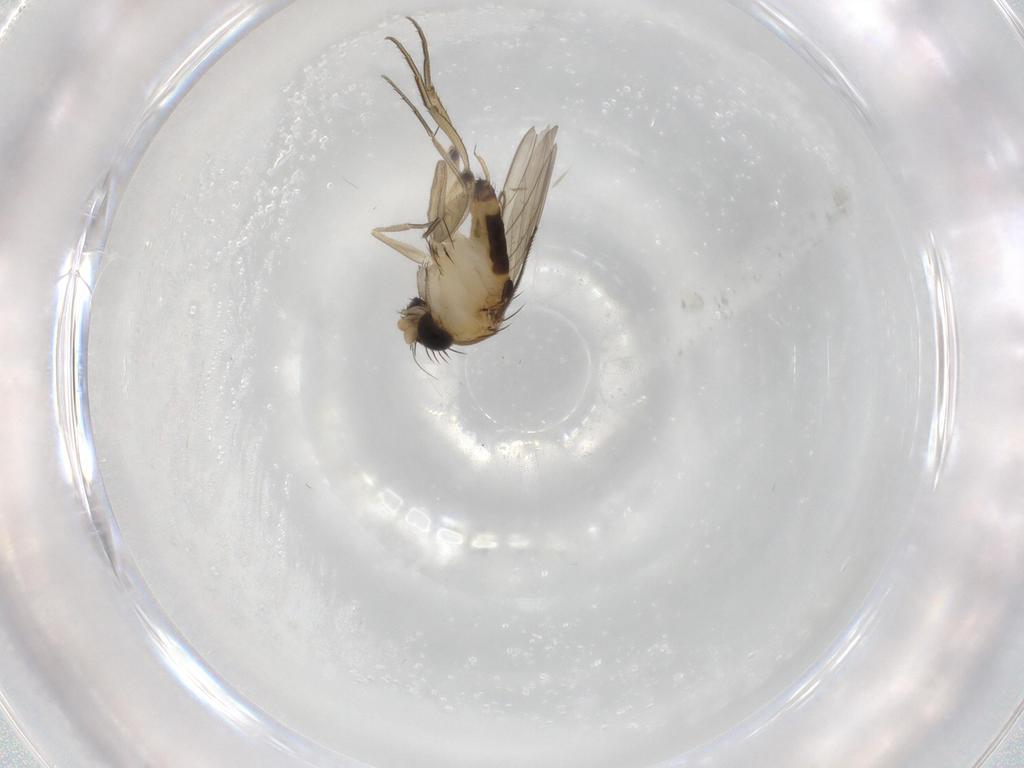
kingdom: Animalia
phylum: Arthropoda
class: Insecta
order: Diptera
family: Phoridae
